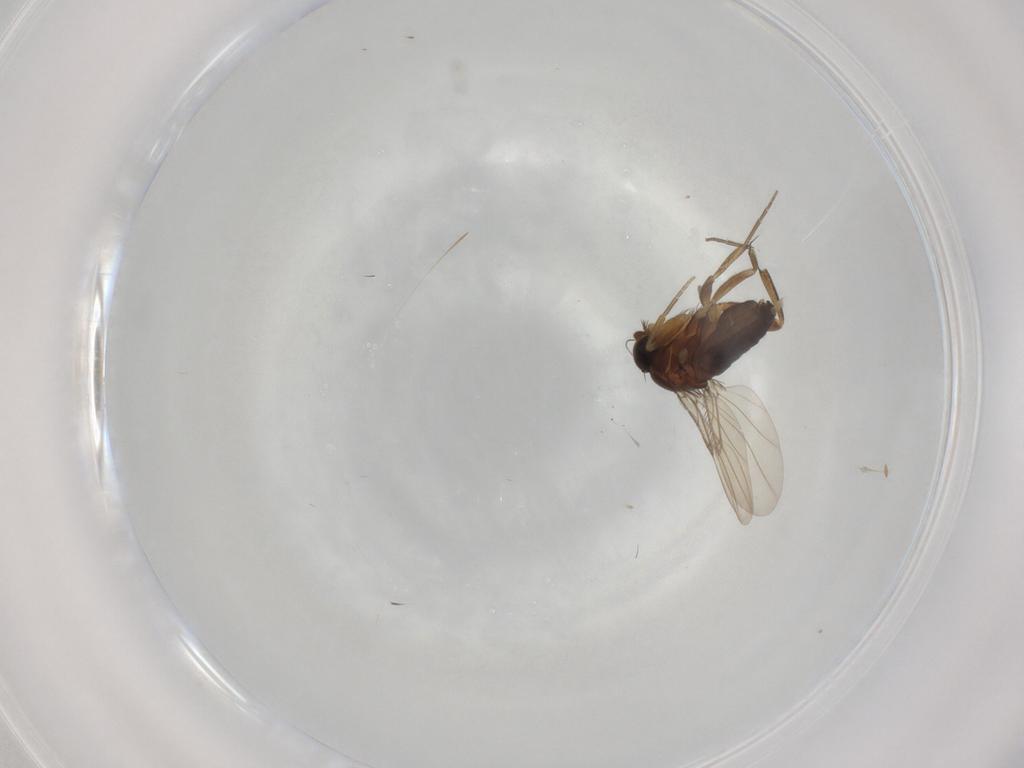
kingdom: Animalia
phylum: Arthropoda
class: Insecta
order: Diptera
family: Phoridae
